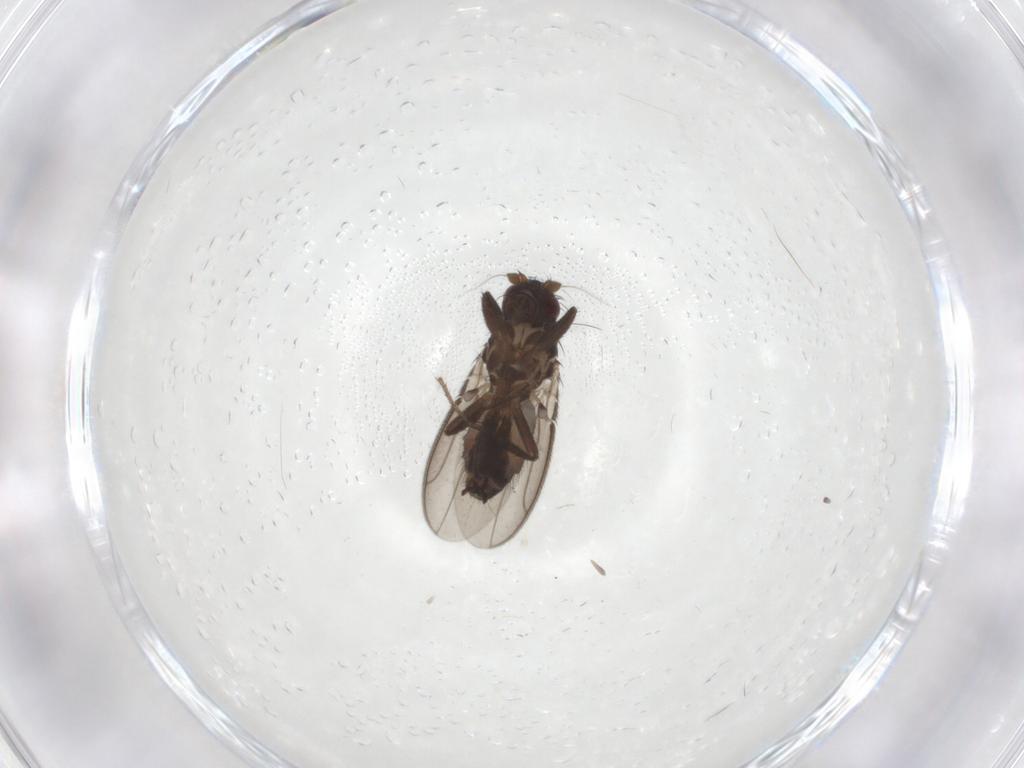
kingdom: Animalia
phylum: Arthropoda
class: Insecta
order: Diptera
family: Sphaeroceridae
